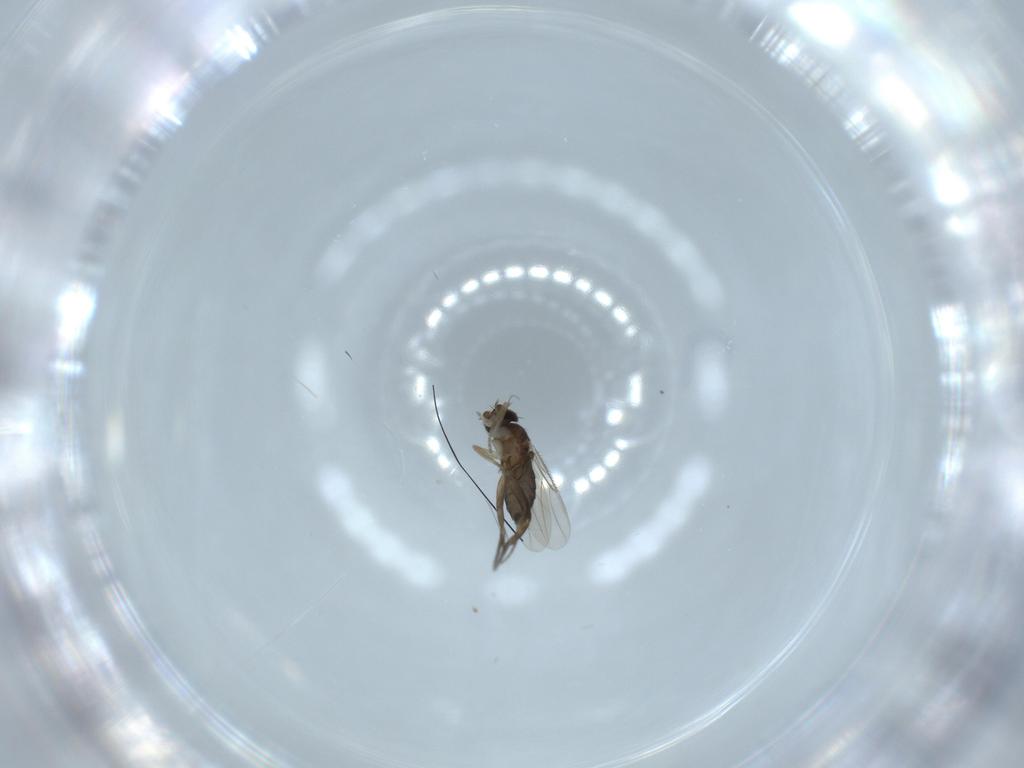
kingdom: Animalia
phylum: Arthropoda
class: Insecta
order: Diptera
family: Phoridae
